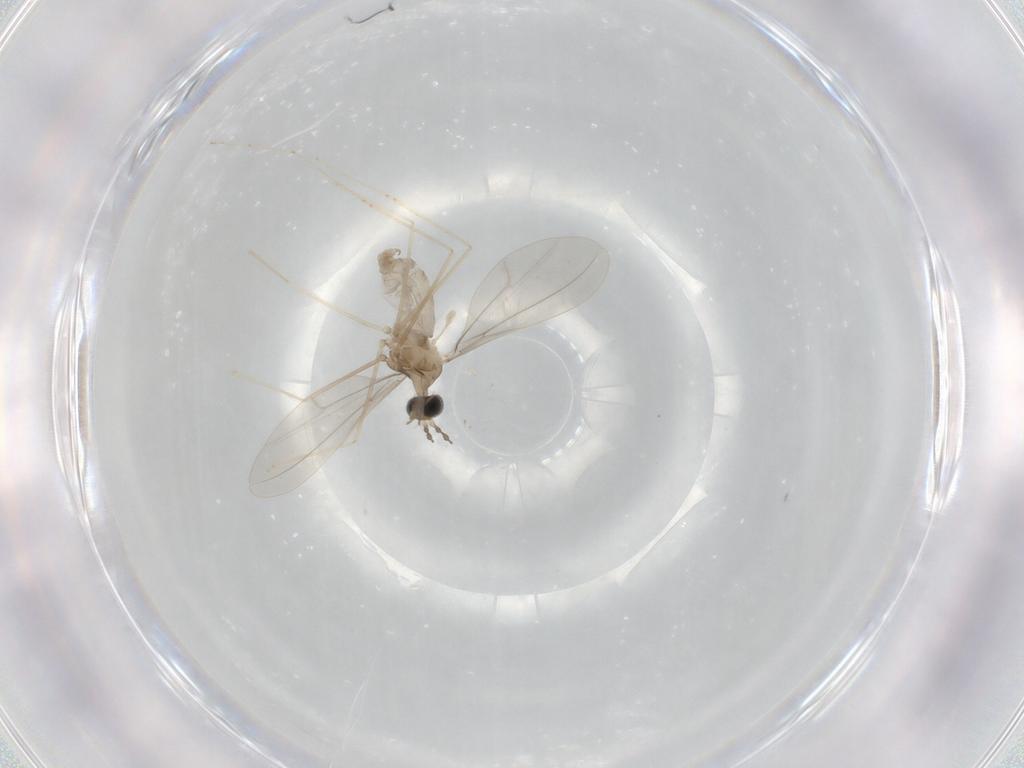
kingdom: Animalia
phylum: Arthropoda
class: Insecta
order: Diptera
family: Cecidomyiidae
